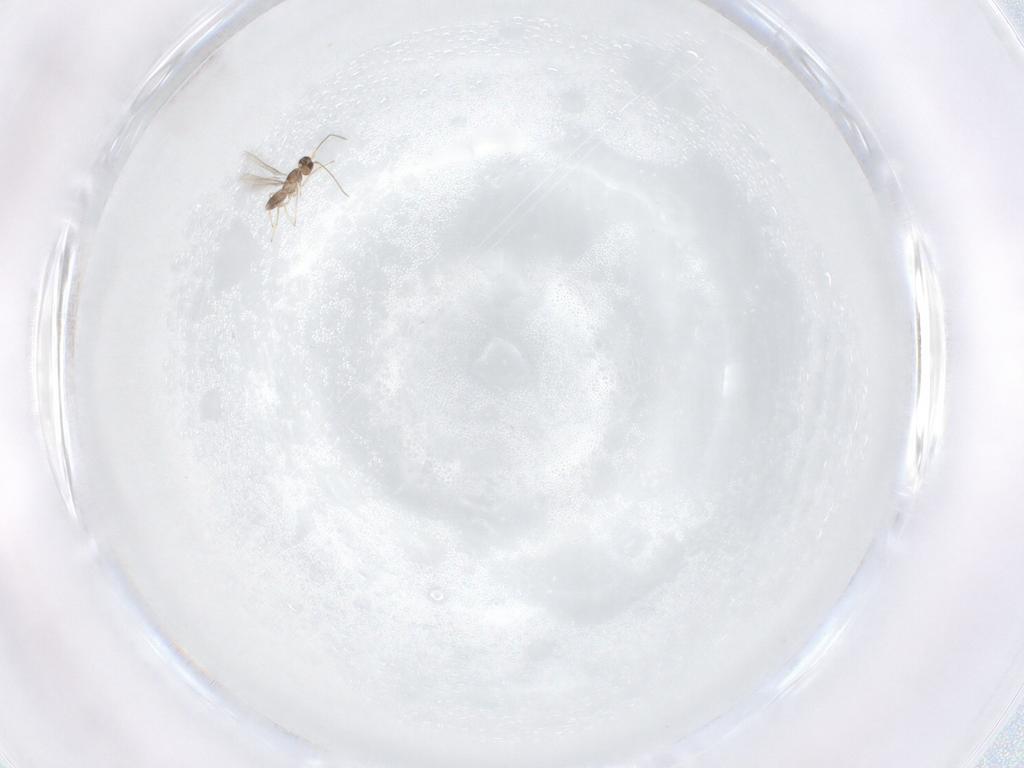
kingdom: Animalia
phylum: Arthropoda
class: Insecta
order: Hymenoptera
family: Mymaridae
